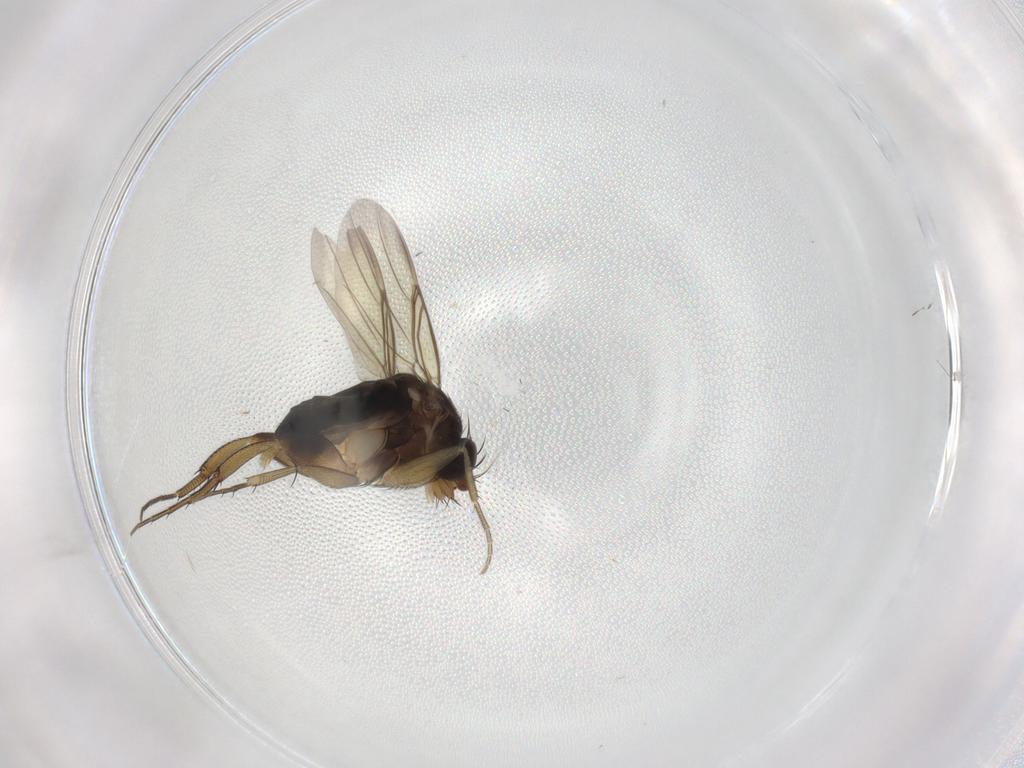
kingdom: Animalia
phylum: Arthropoda
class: Insecta
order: Diptera
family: Phoridae
